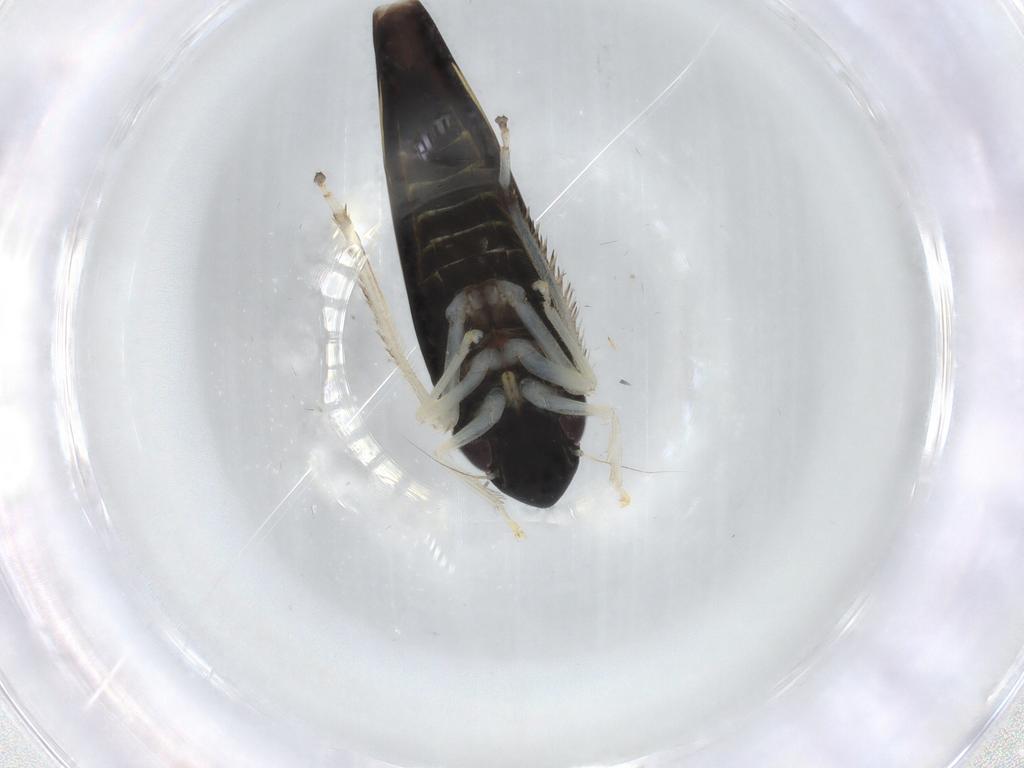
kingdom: Animalia
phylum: Arthropoda
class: Insecta
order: Hemiptera
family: Cicadellidae
